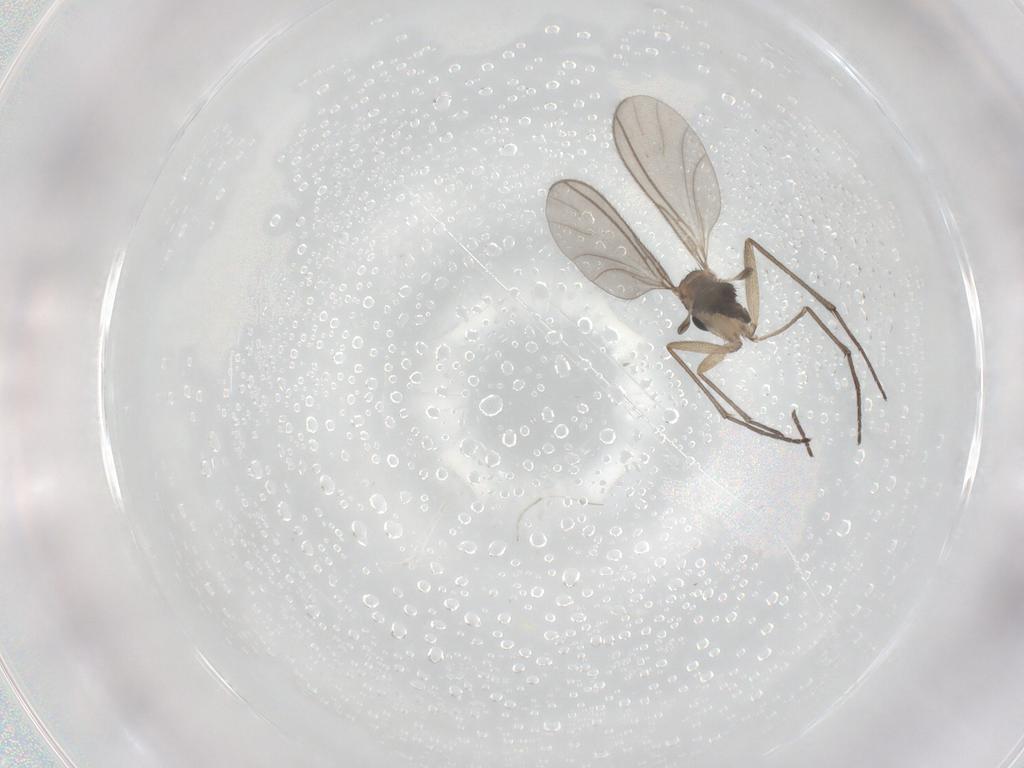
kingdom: Animalia
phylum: Arthropoda
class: Insecta
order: Diptera
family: Sciaridae
